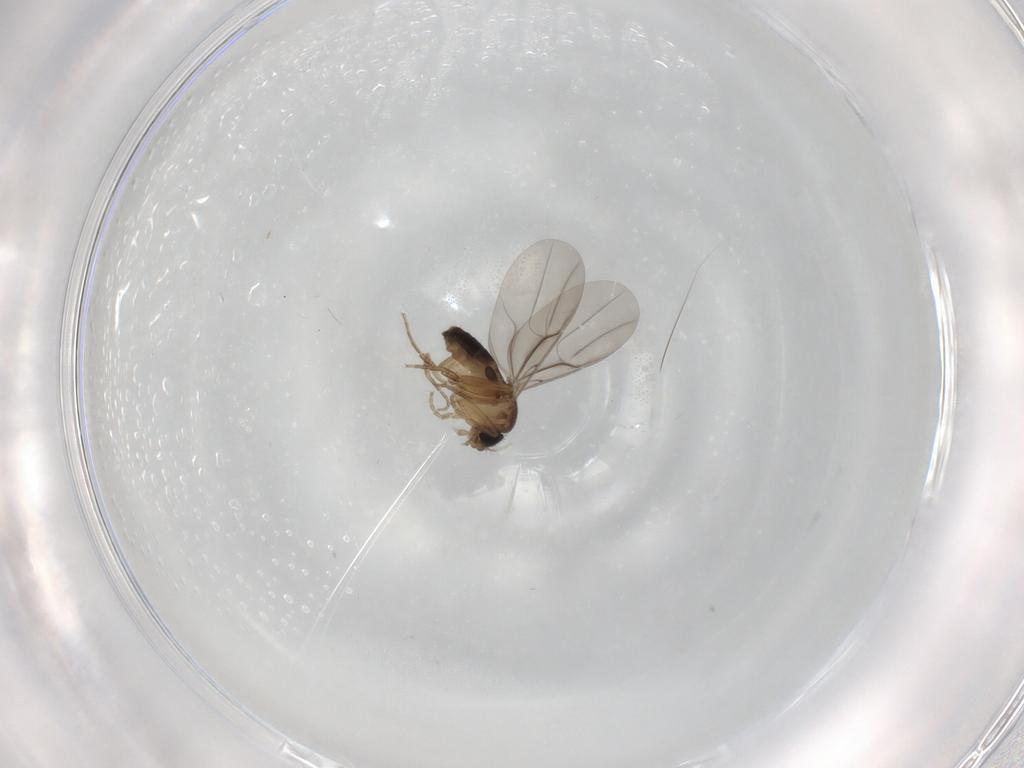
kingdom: Animalia
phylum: Arthropoda
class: Insecta
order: Diptera
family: Phoridae
